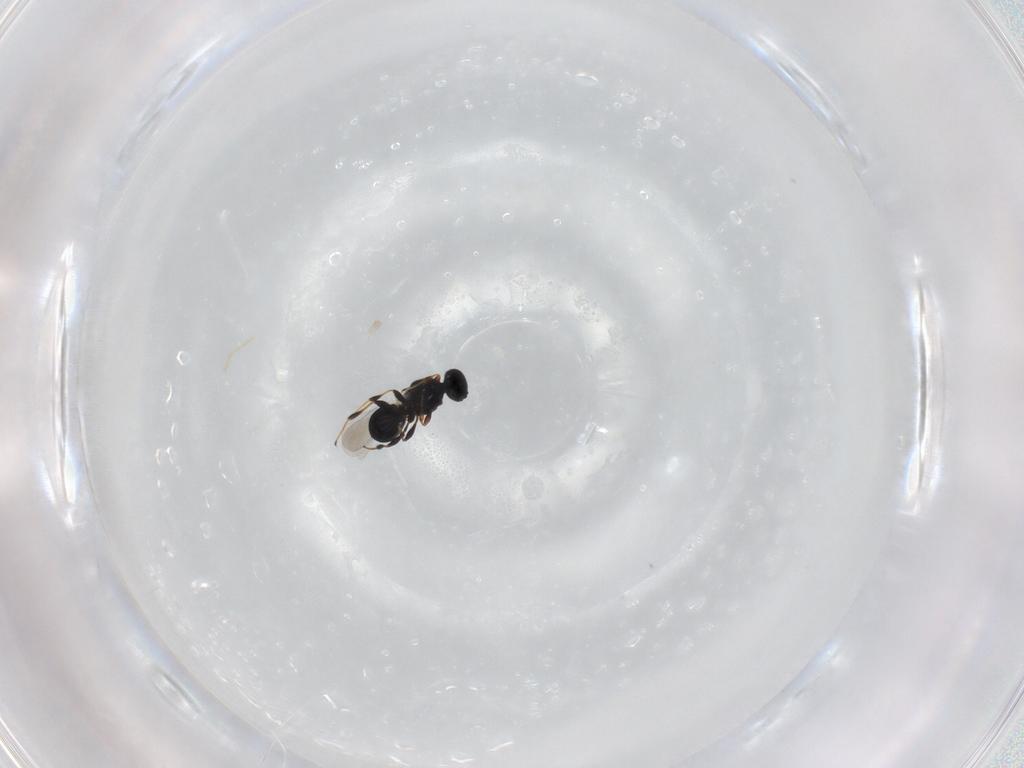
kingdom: Animalia
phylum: Arthropoda
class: Insecta
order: Hymenoptera
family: Platygastridae
